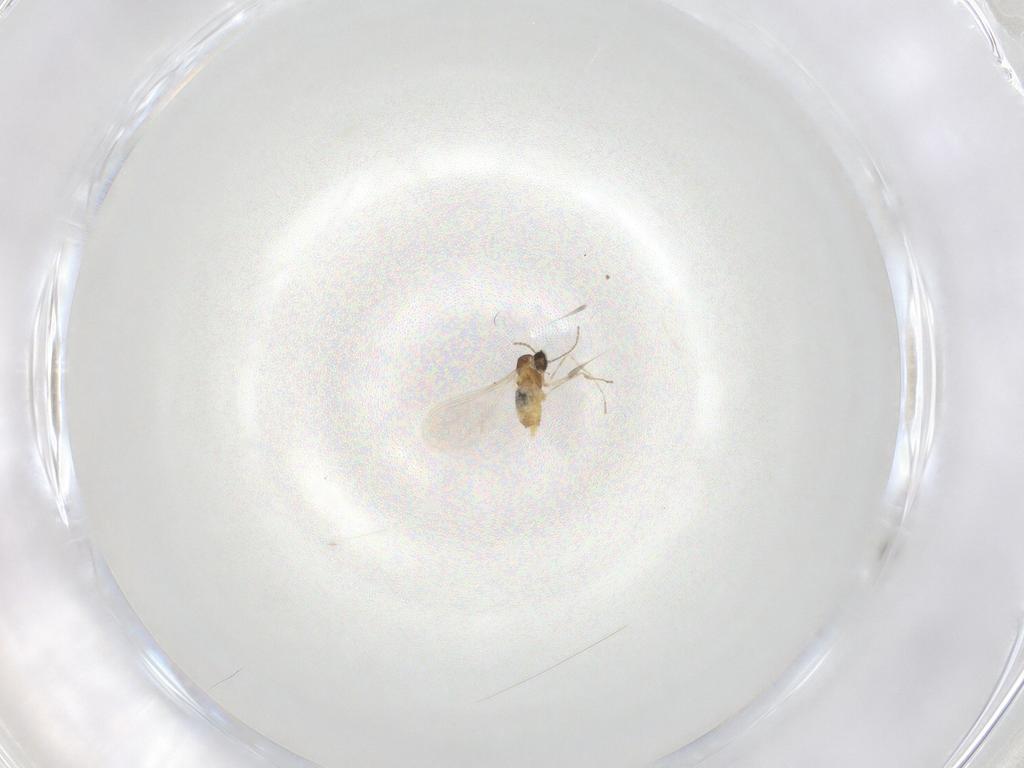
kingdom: Animalia
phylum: Arthropoda
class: Insecta
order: Diptera
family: Cecidomyiidae
